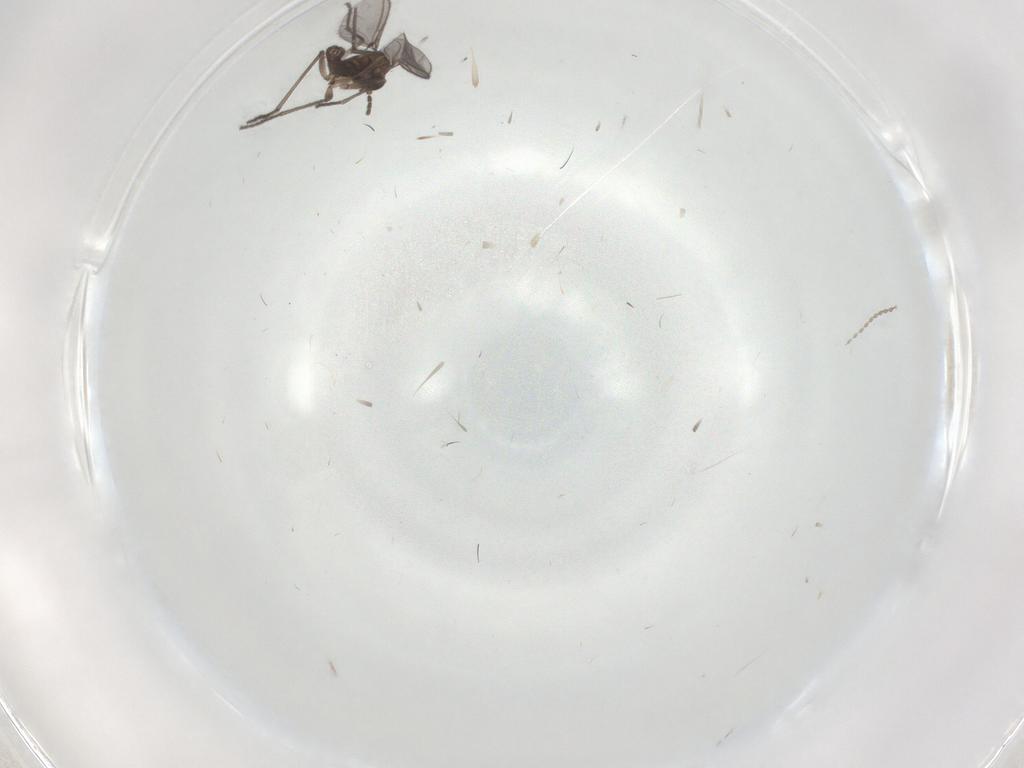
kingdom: Animalia
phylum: Arthropoda
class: Insecta
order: Diptera
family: Sciaridae
